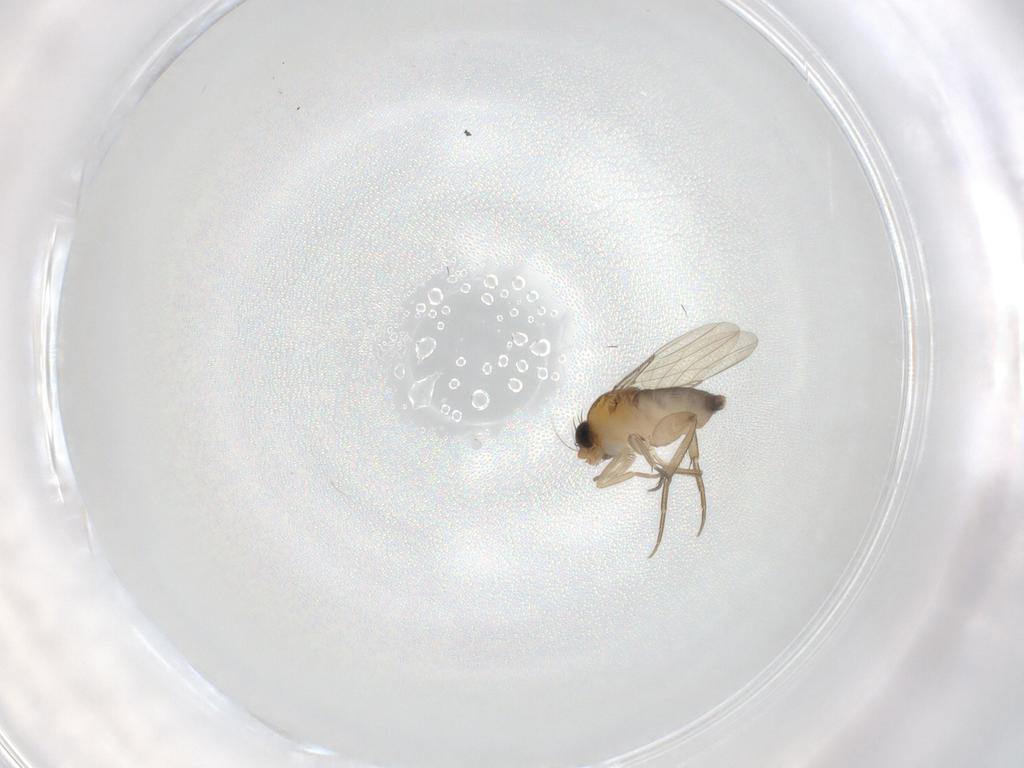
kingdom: Animalia
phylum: Arthropoda
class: Insecta
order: Diptera
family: Phoridae
